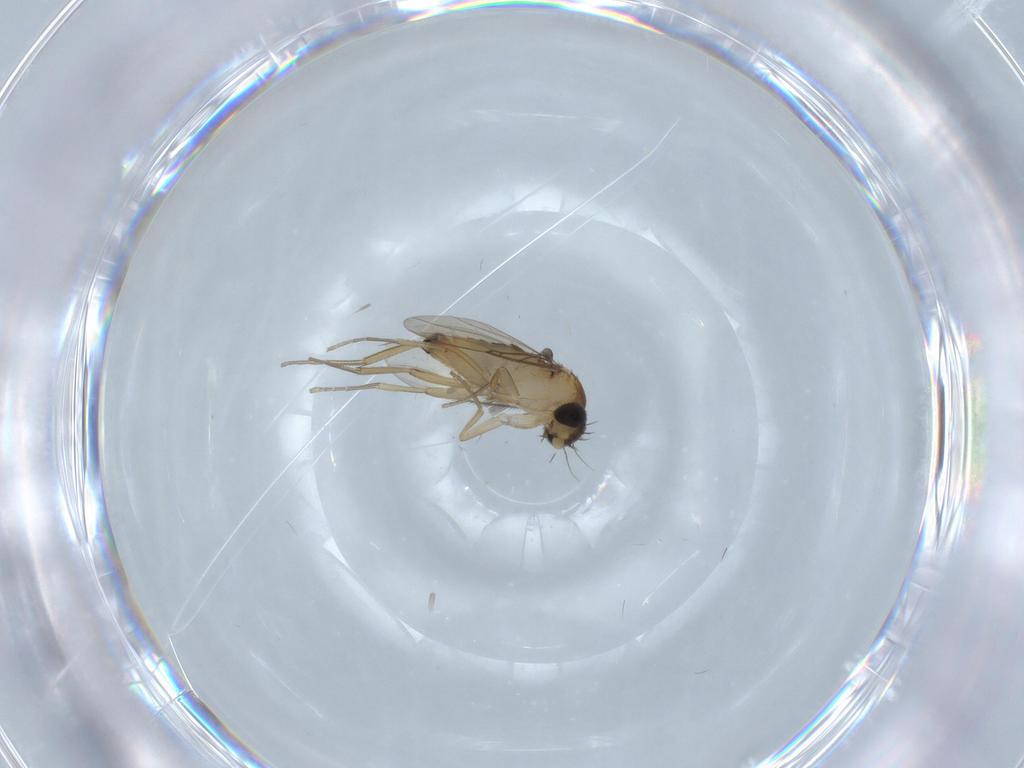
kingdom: Animalia
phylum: Arthropoda
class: Insecta
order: Diptera
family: Phoridae
